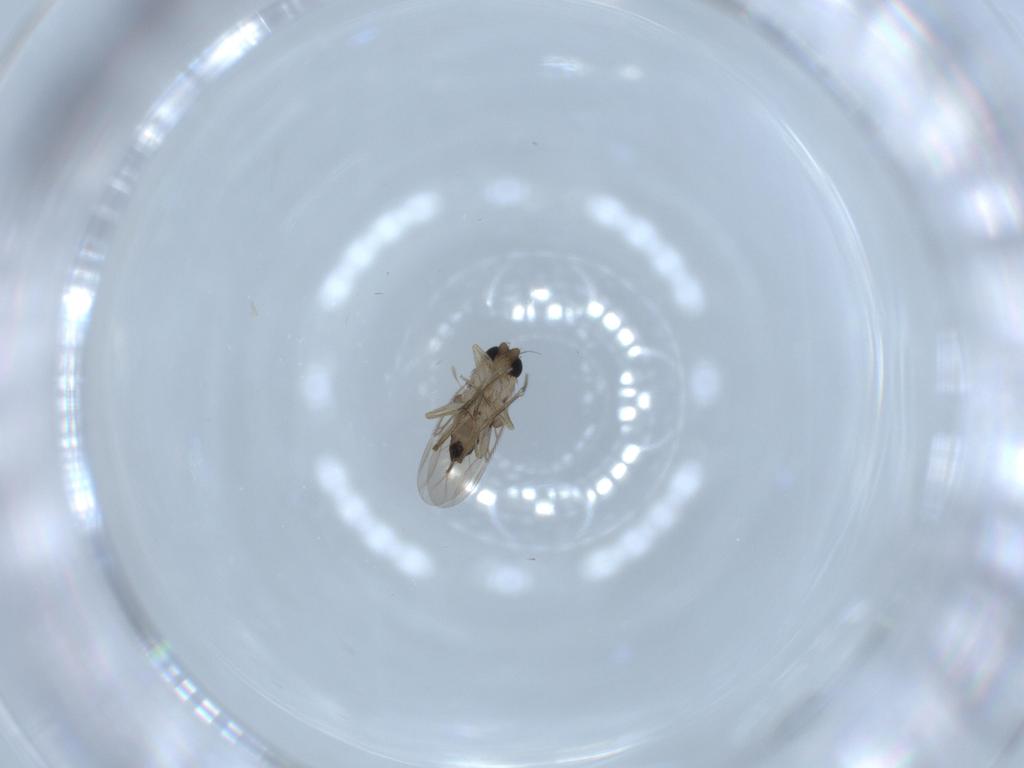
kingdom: Animalia
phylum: Arthropoda
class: Insecta
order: Diptera
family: Phoridae
